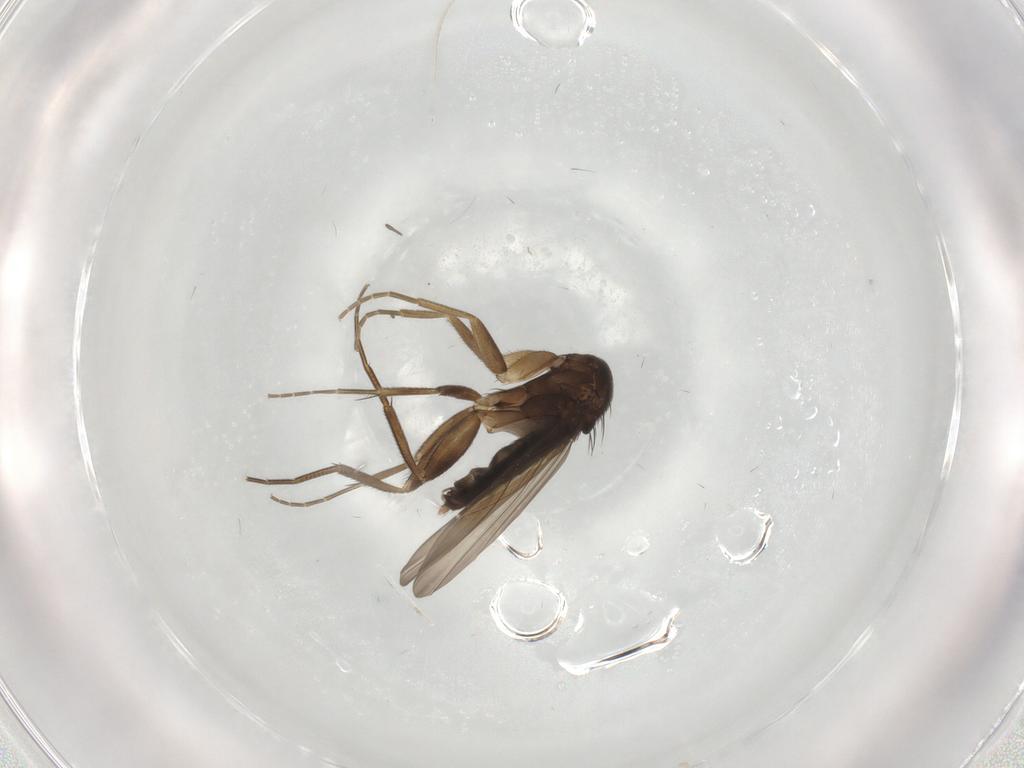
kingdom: Animalia
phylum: Arthropoda
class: Insecta
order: Diptera
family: Phoridae
